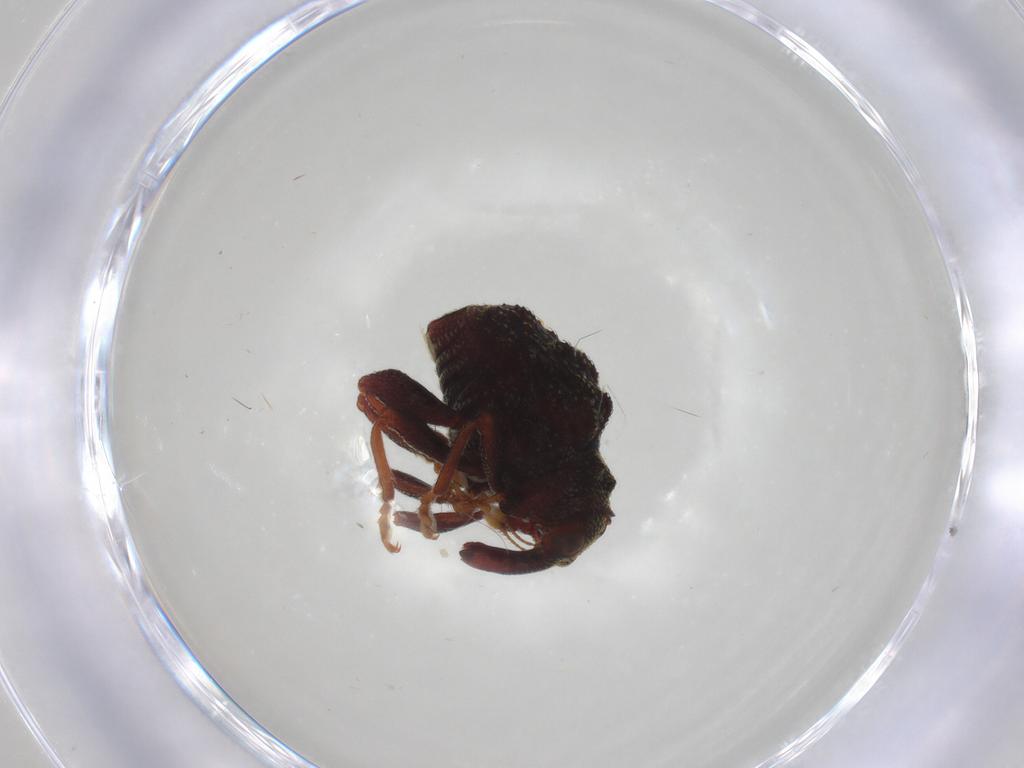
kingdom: Animalia
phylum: Arthropoda
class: Insecta
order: Coleoptera
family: Curculionidae
